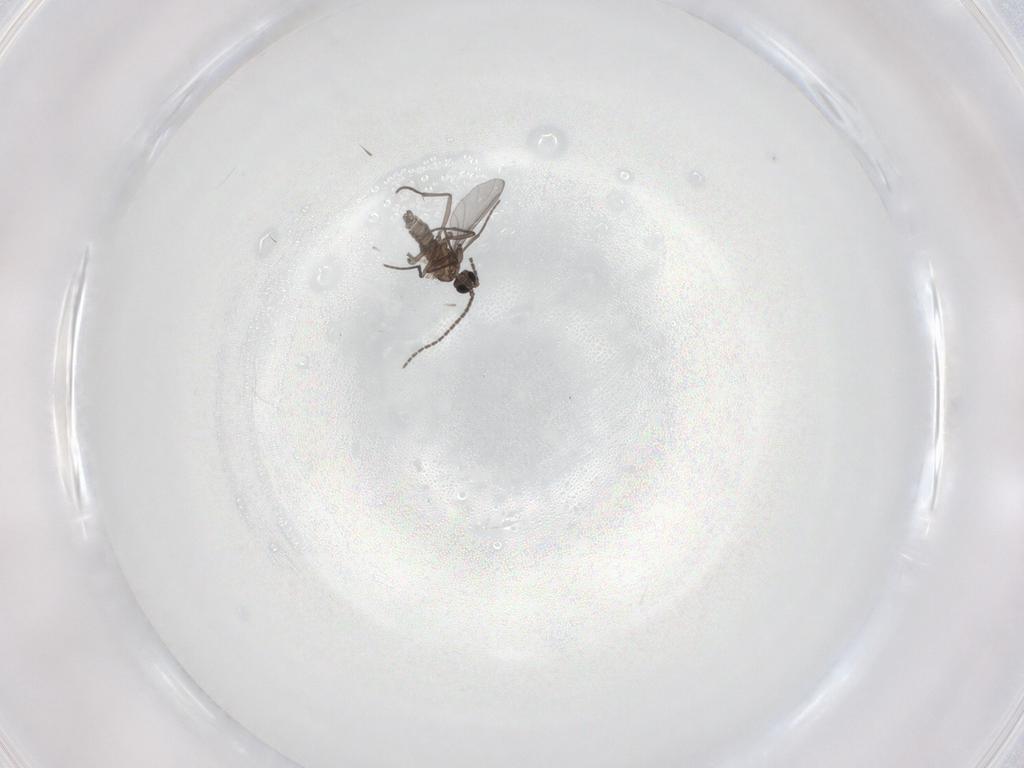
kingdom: Animalia
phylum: Arthropoda
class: Insecta
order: Diptera
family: Sciaridae
